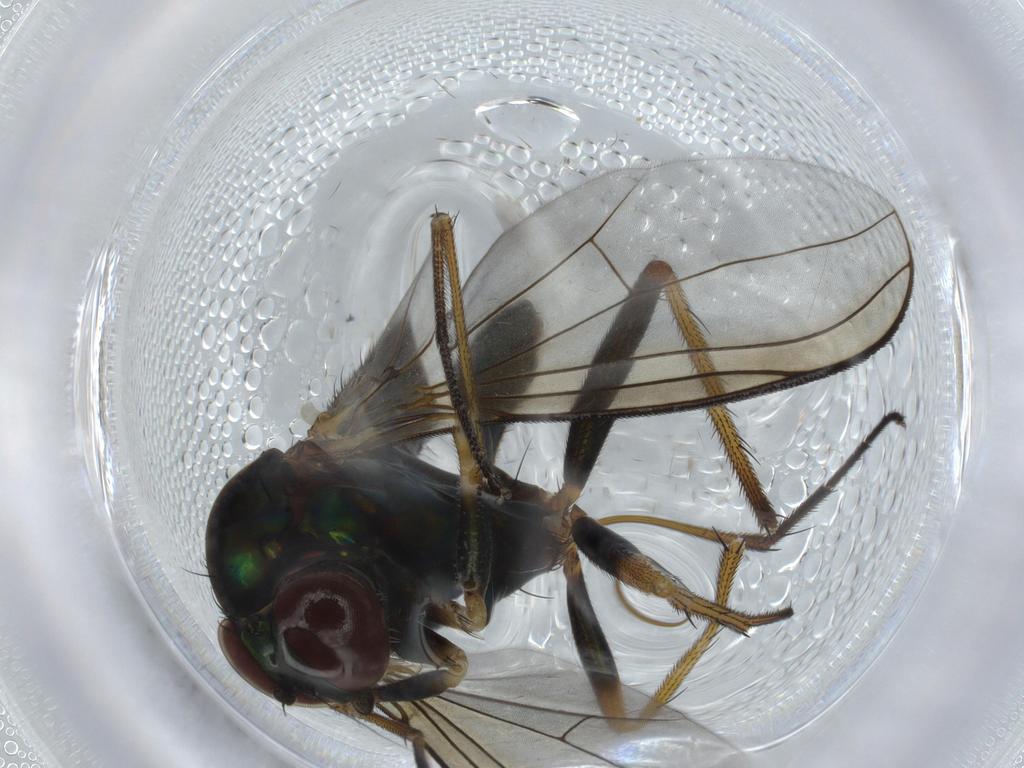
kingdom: Animalia
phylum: Arthropoda
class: Insecta
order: Diptera
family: Dolichopodidae
